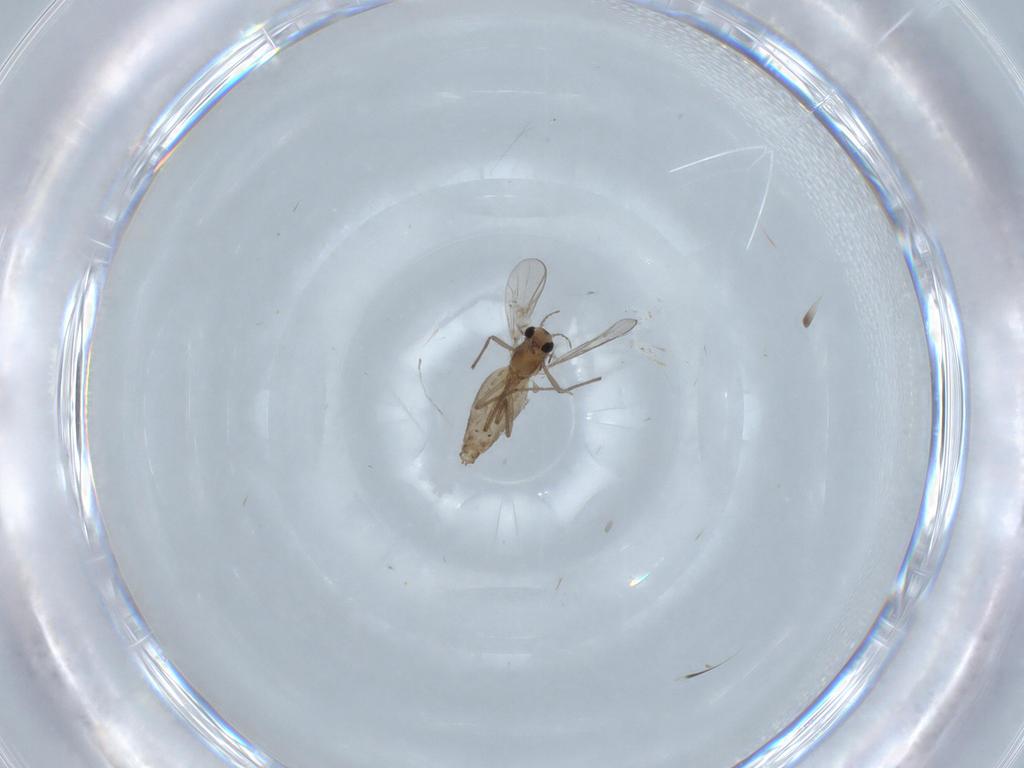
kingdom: Animalia
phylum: Arthropoda
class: Insecta
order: Diptera
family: Chironomidae
